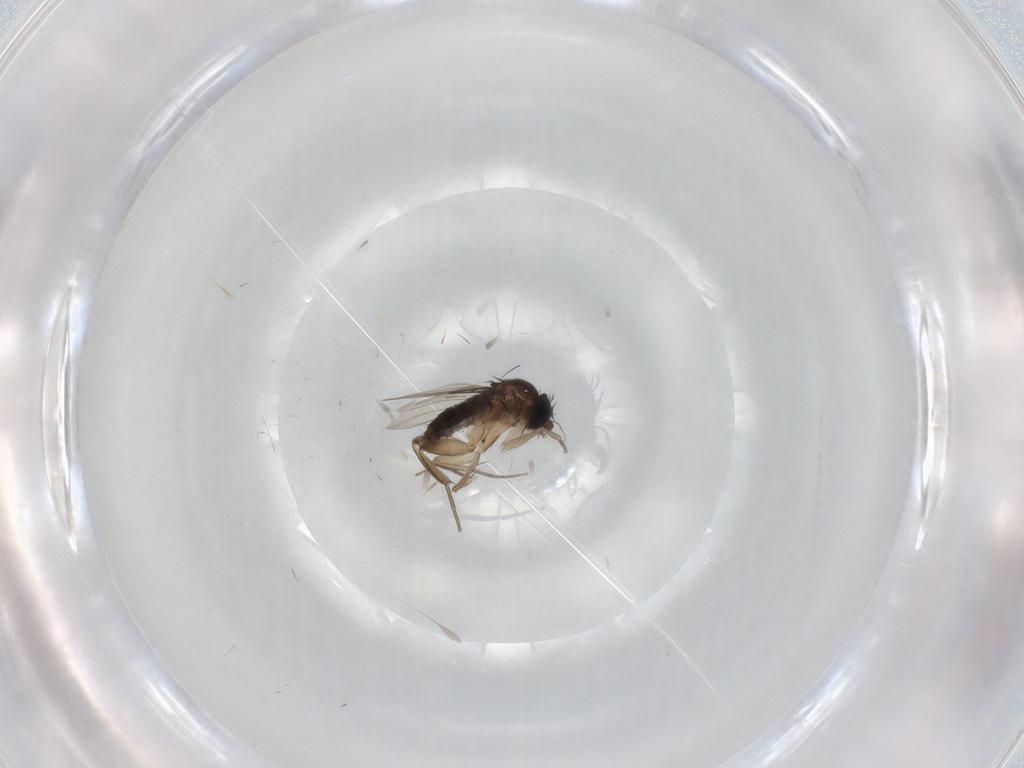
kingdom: Animalia
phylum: Arthropoda
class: Insecta
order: Diptera
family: Phoridae
